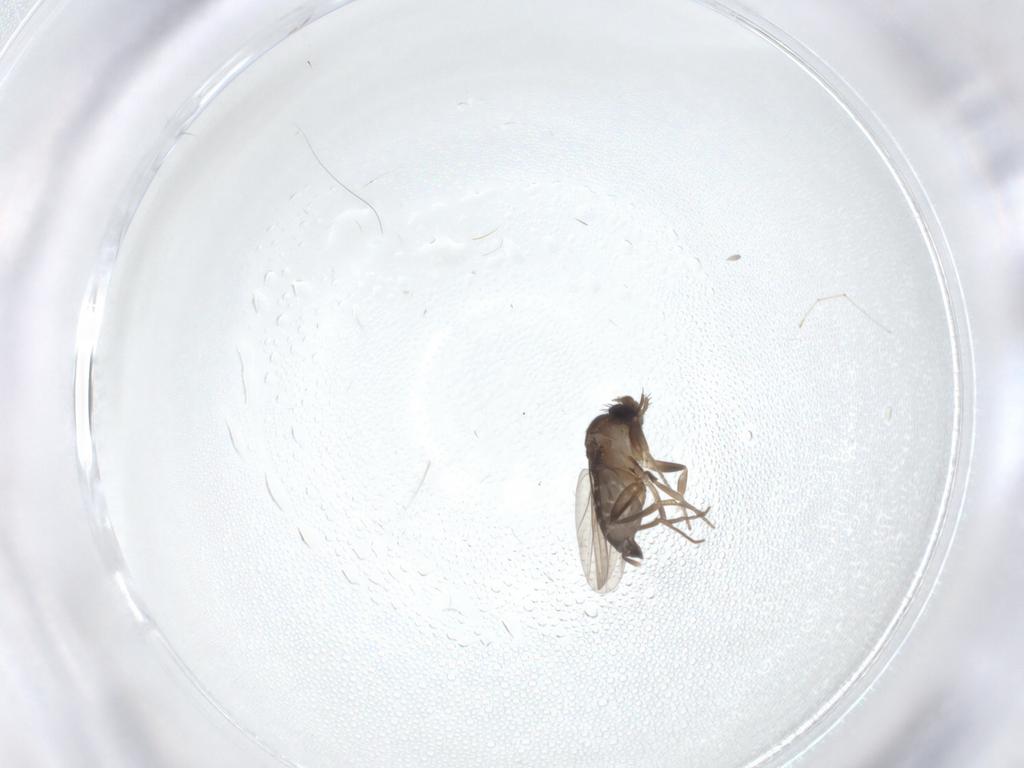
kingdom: Animalia
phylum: Arthropoda
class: Insecta
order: Diptera
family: Phoridae
